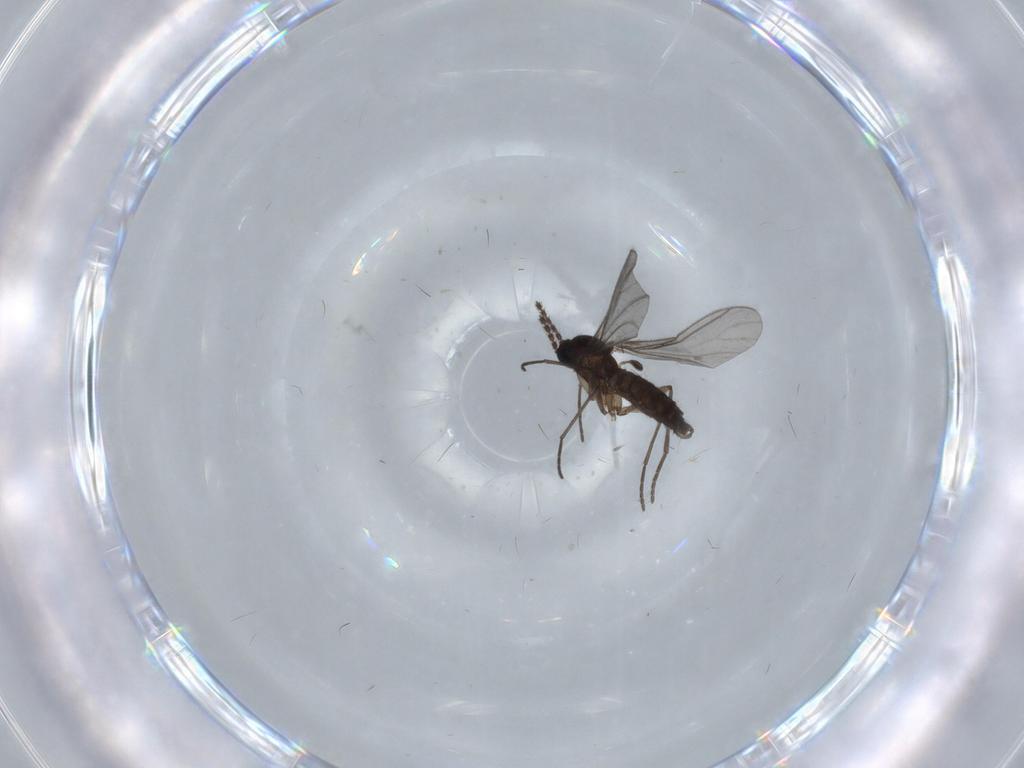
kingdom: Animalia
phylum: Arthropoda
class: Insecta
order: Diptera
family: Cecidomyiidae
